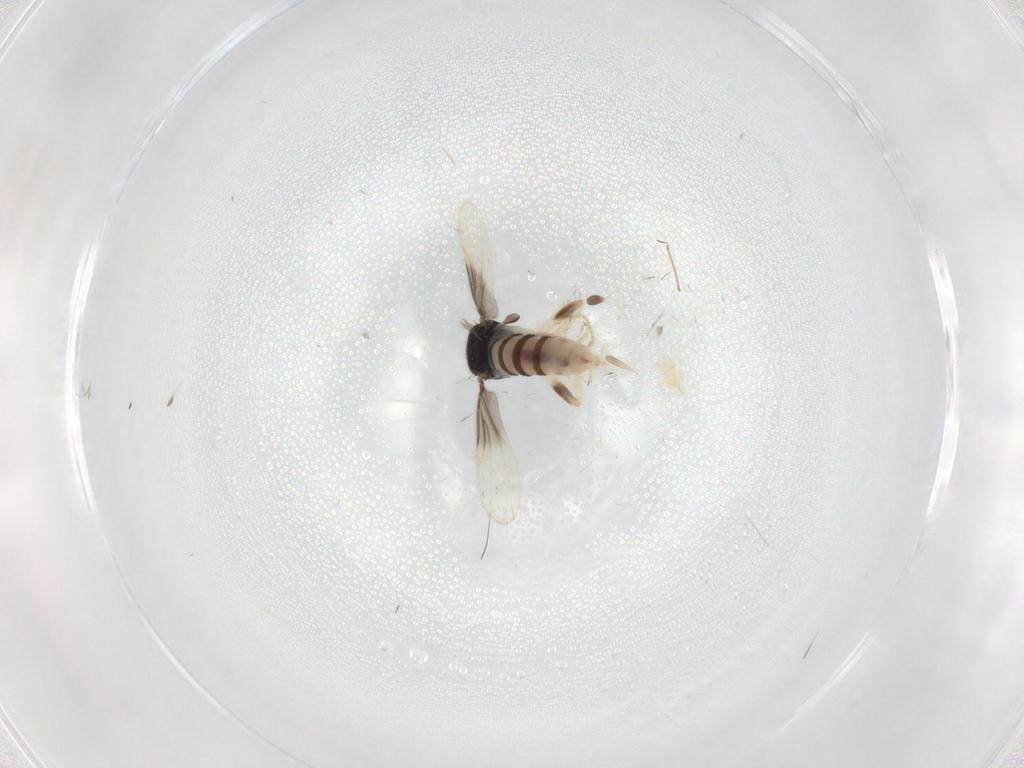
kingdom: Animalia
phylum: Arthropoda
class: Insecta
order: Diptera
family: Hybotidae
